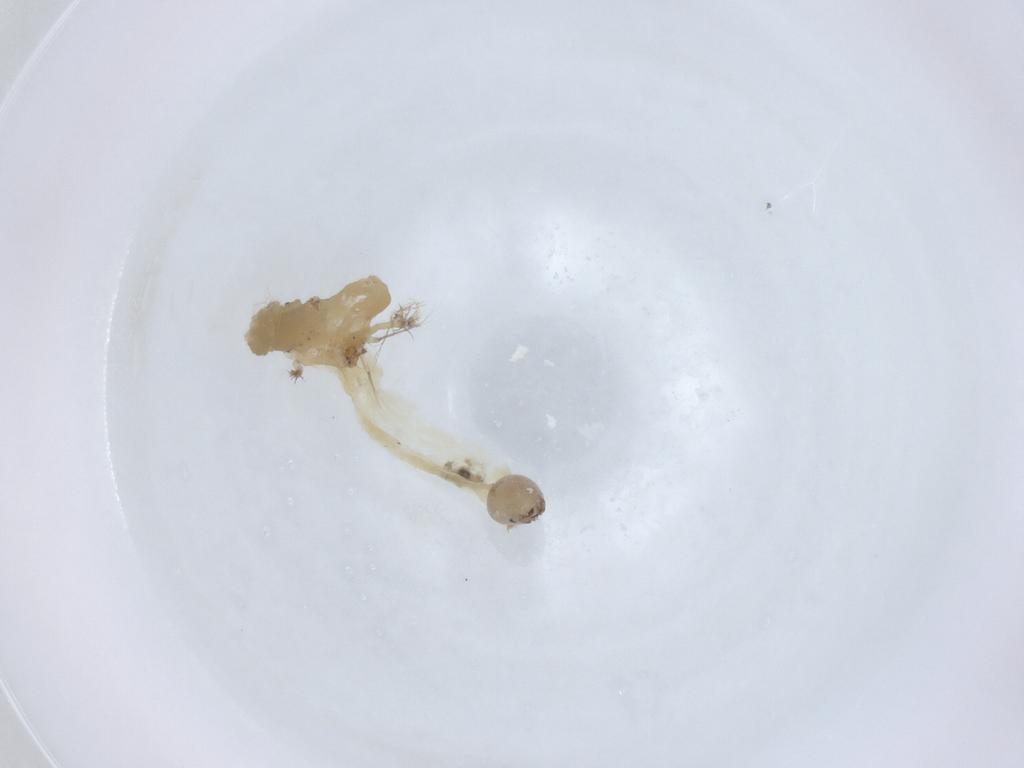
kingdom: Animalia
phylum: Arthropoda
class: Insecta
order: Diptera
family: Chironomidae
